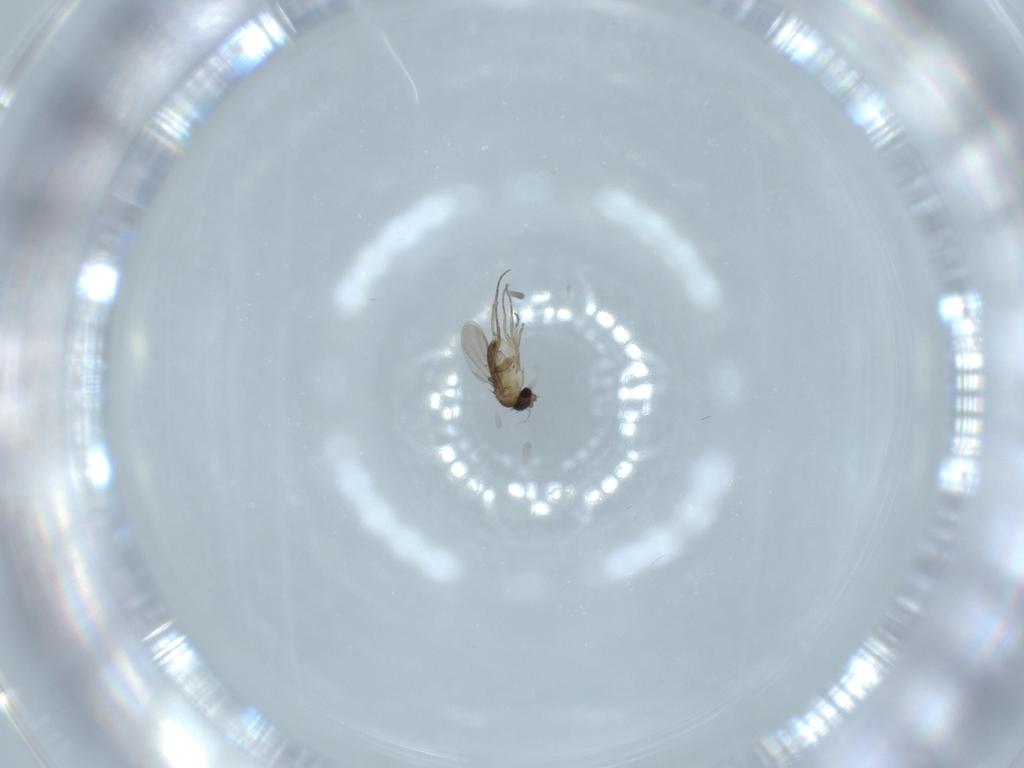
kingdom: Animalia
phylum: Arthropoda
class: Insecta
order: Diptera
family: Phoridae
